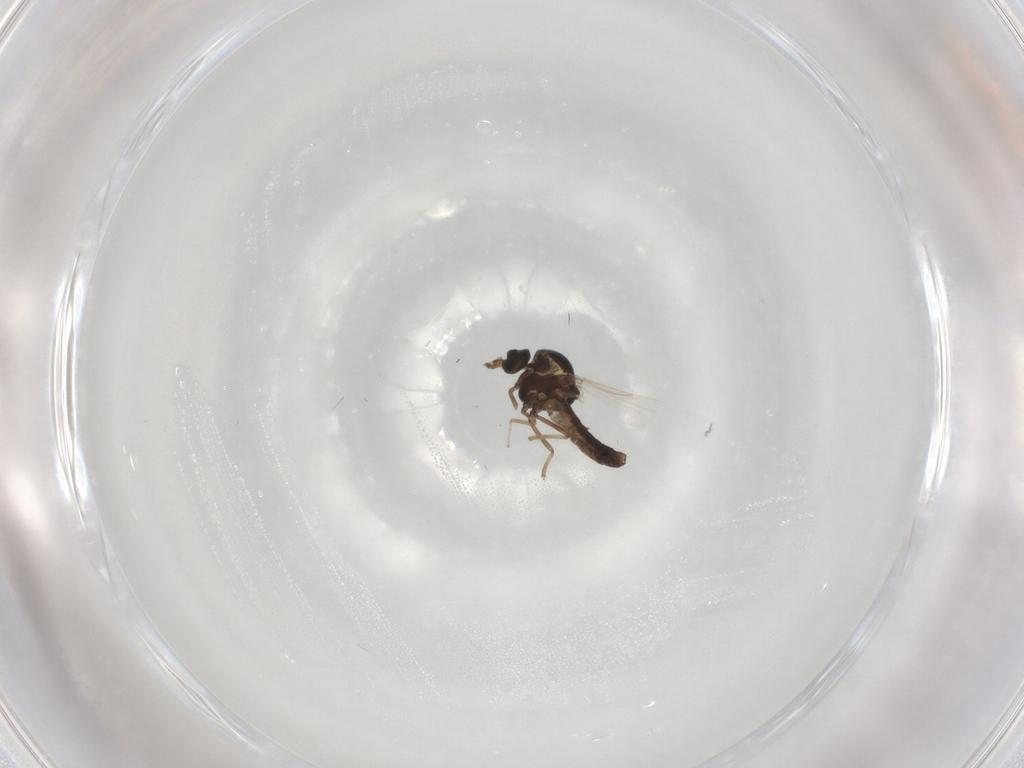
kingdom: Animalia
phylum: Arthropoda
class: Insecta
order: Diptera
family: Ceratopogonidae
